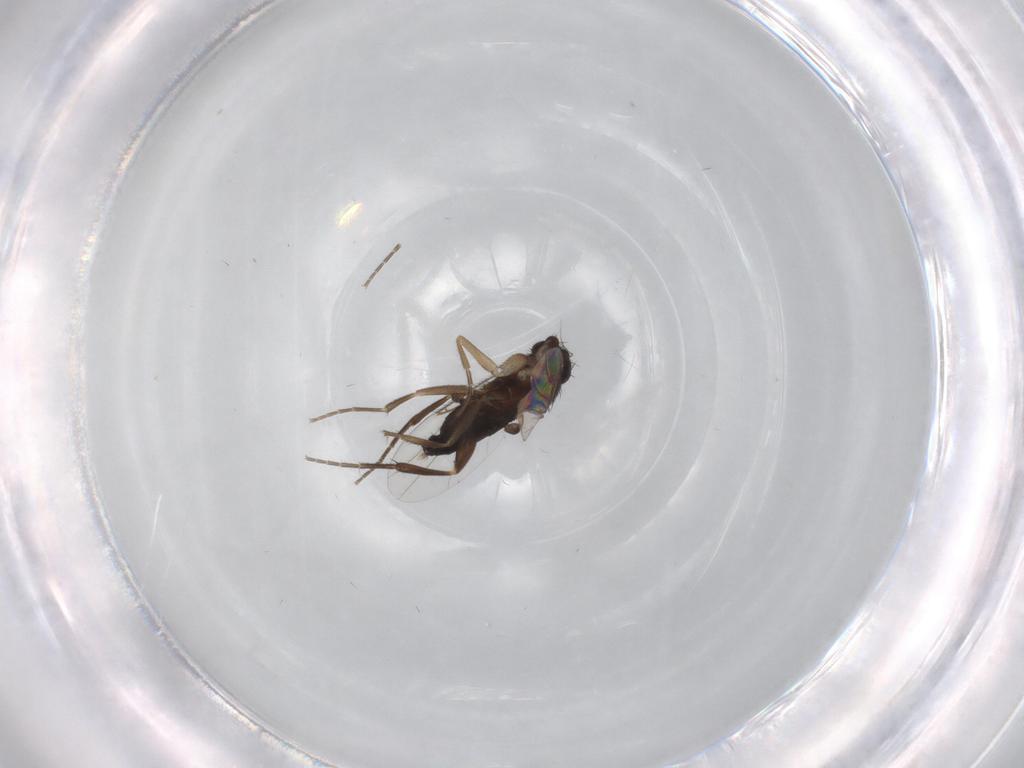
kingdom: Animalia
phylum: Arthropoda
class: Insecta
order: Diptera
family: Phoridae
